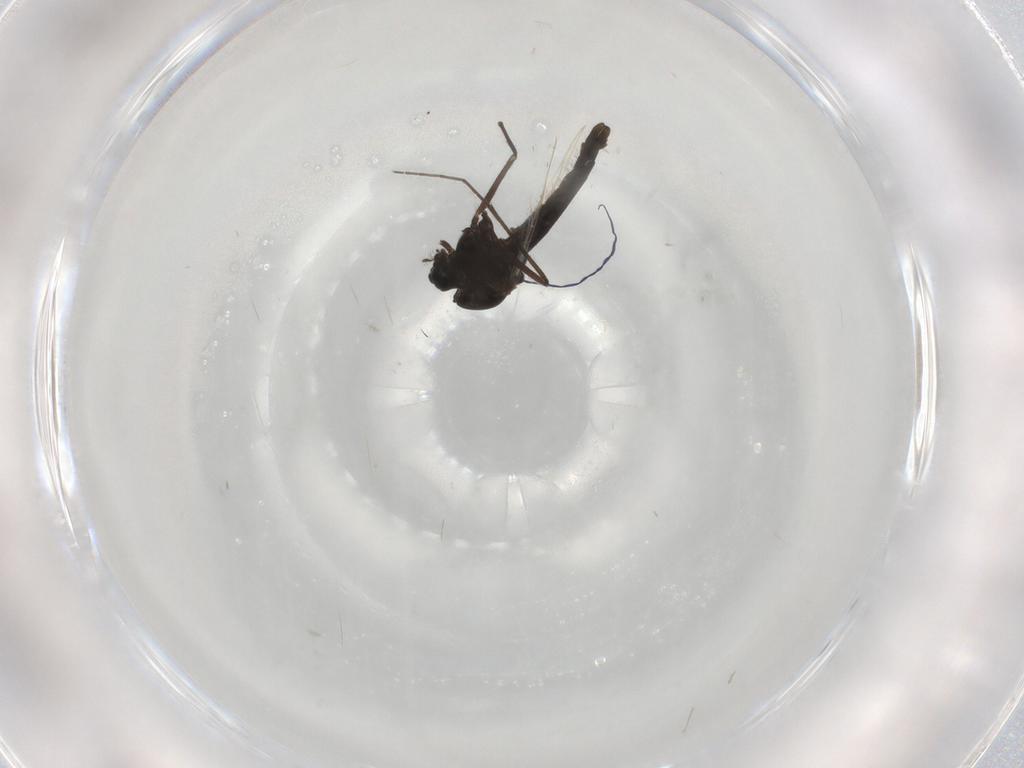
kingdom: Animalia
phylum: Arthropoda
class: Insecta
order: Diptera
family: Chironomidae
